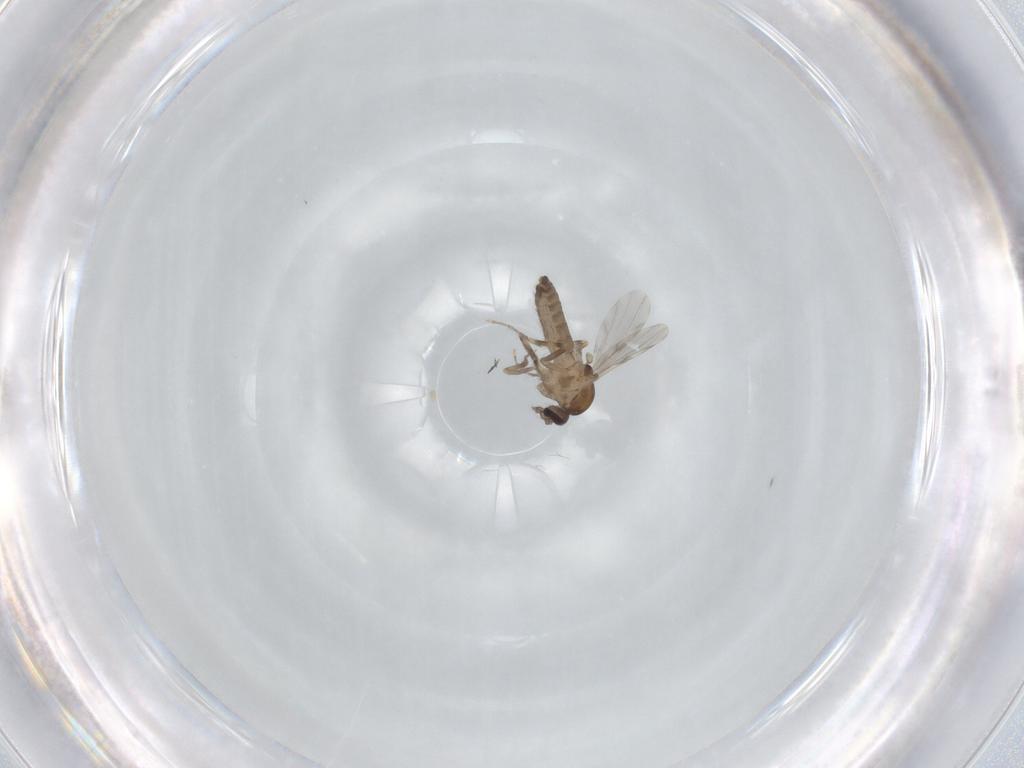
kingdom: Animalia
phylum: Arthropoda
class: Insecta
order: Diptera
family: Ceratopogonidae
